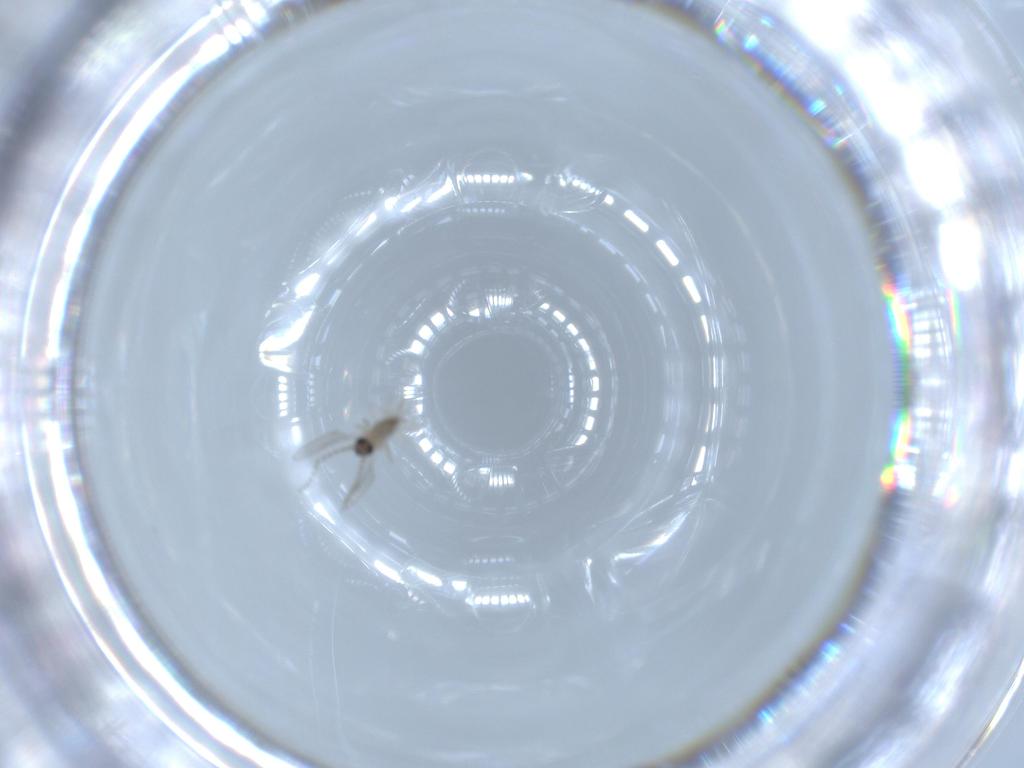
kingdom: Animalia
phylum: Arthropoda
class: Insecta
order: Diptera
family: Cecidomyiidae
